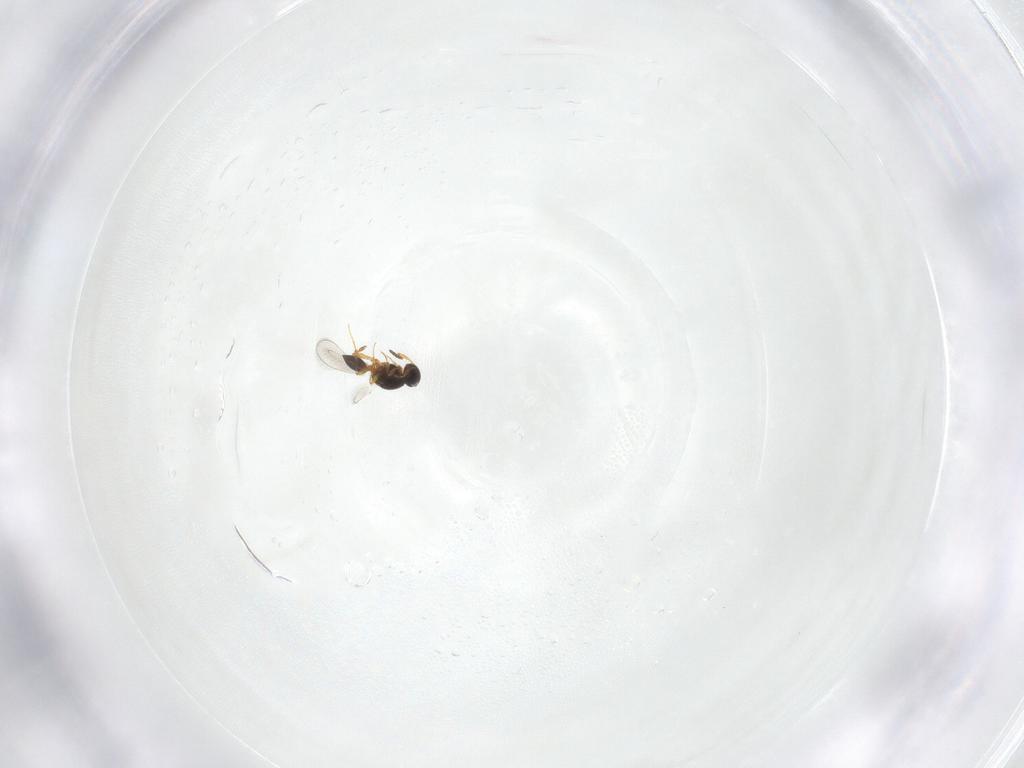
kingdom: Animalia
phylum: Arthropoda
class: Insecta
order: Hymenoptera
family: Platygastridae
